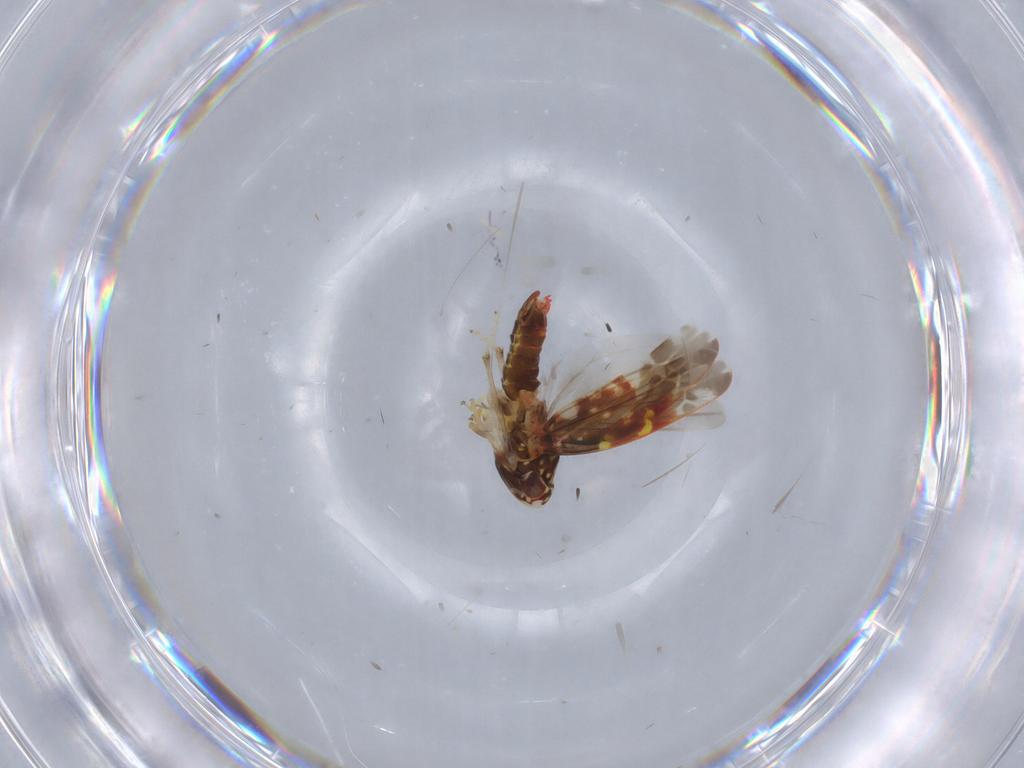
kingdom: Animalia
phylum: Arthropoda
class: Insecta
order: Hemiptera
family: Cicadellidae
